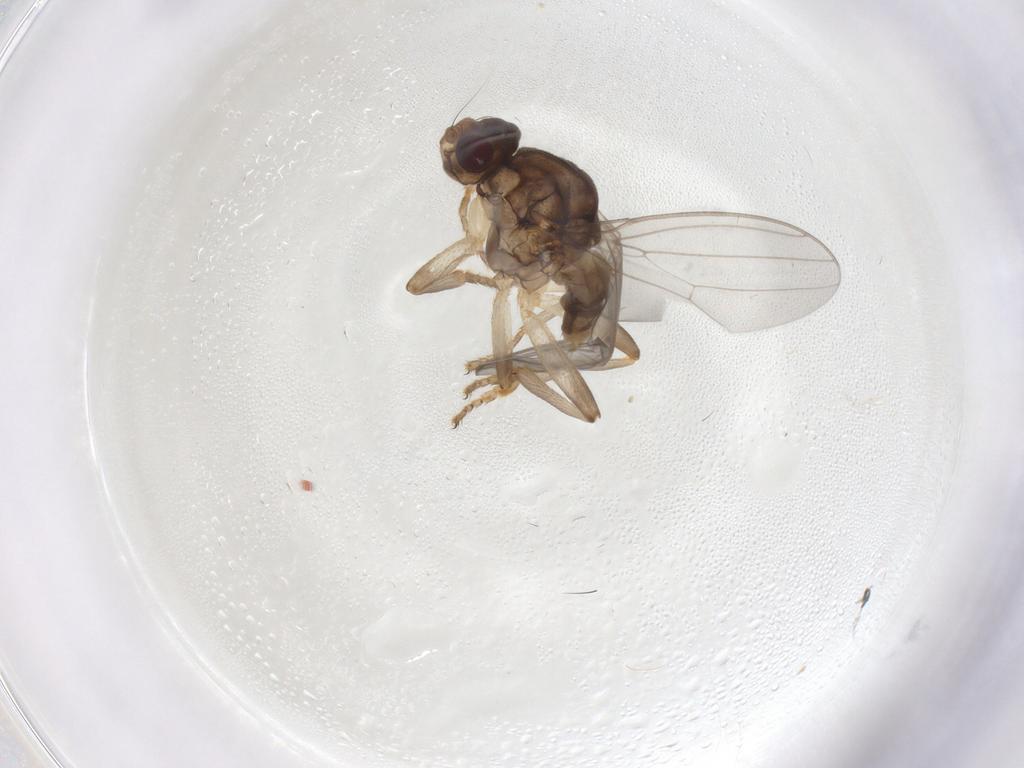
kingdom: Animalia
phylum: Arthropoda
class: Insecta
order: Diptera
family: Sphaeroceridae
